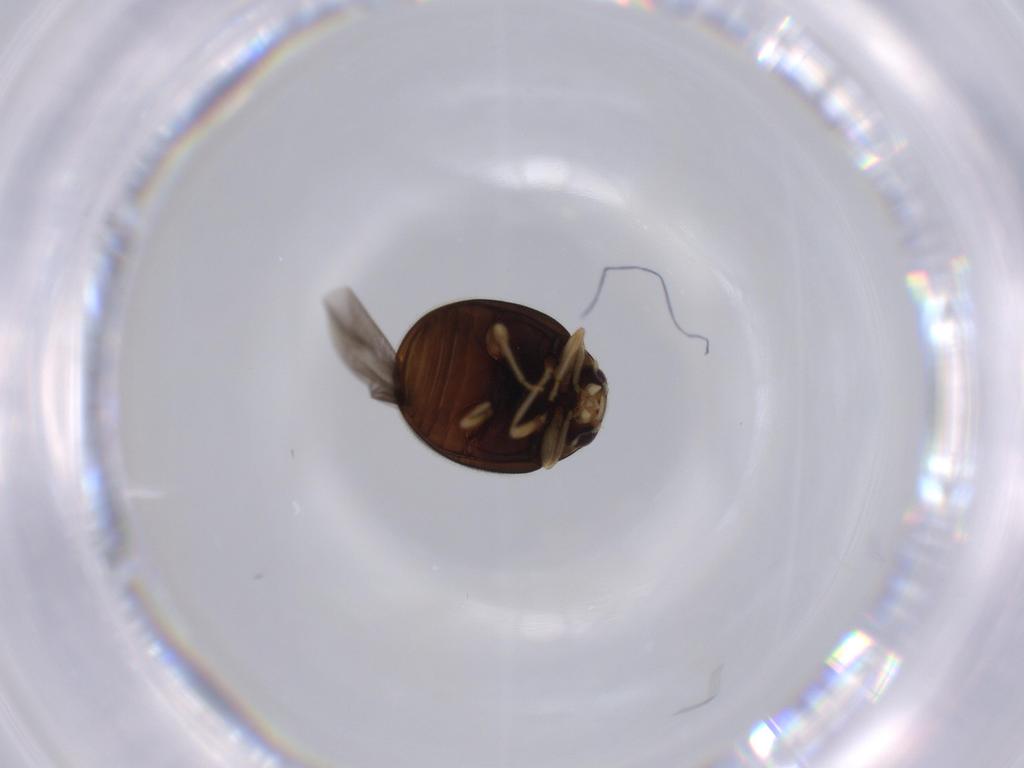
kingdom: Animalia
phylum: Arthropoda
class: Insecta
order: Coleoptera
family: Coccinellidae
